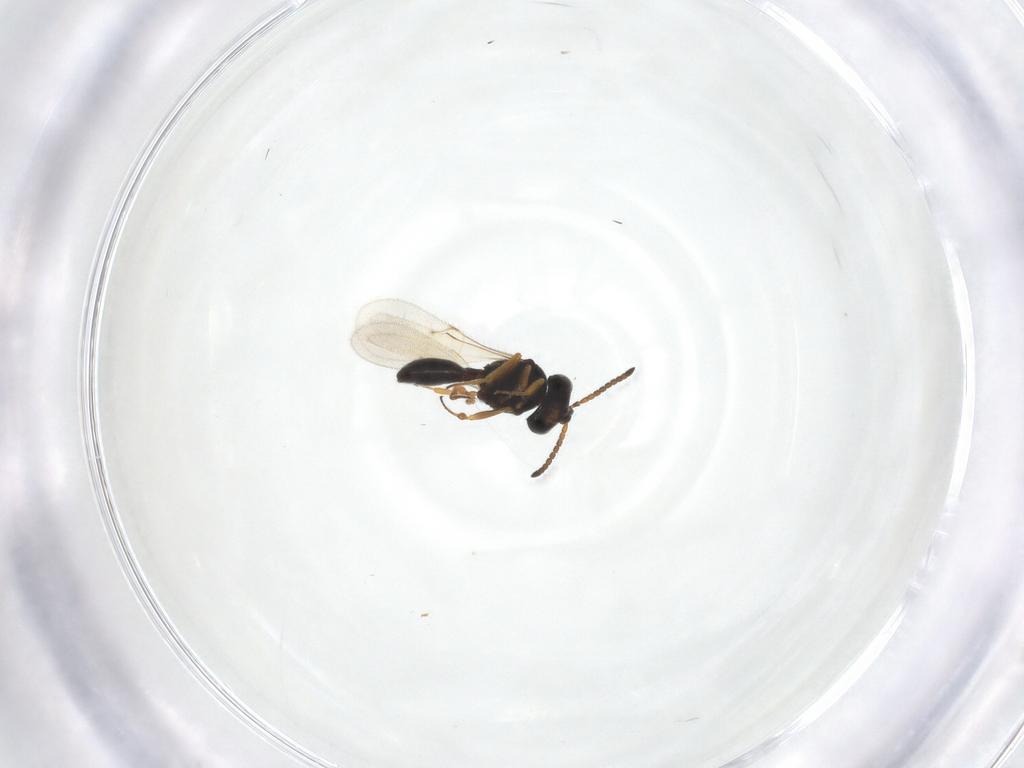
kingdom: Animalia
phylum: Arthropoda
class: Insecta
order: Hymenoptera
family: Scelionidae
